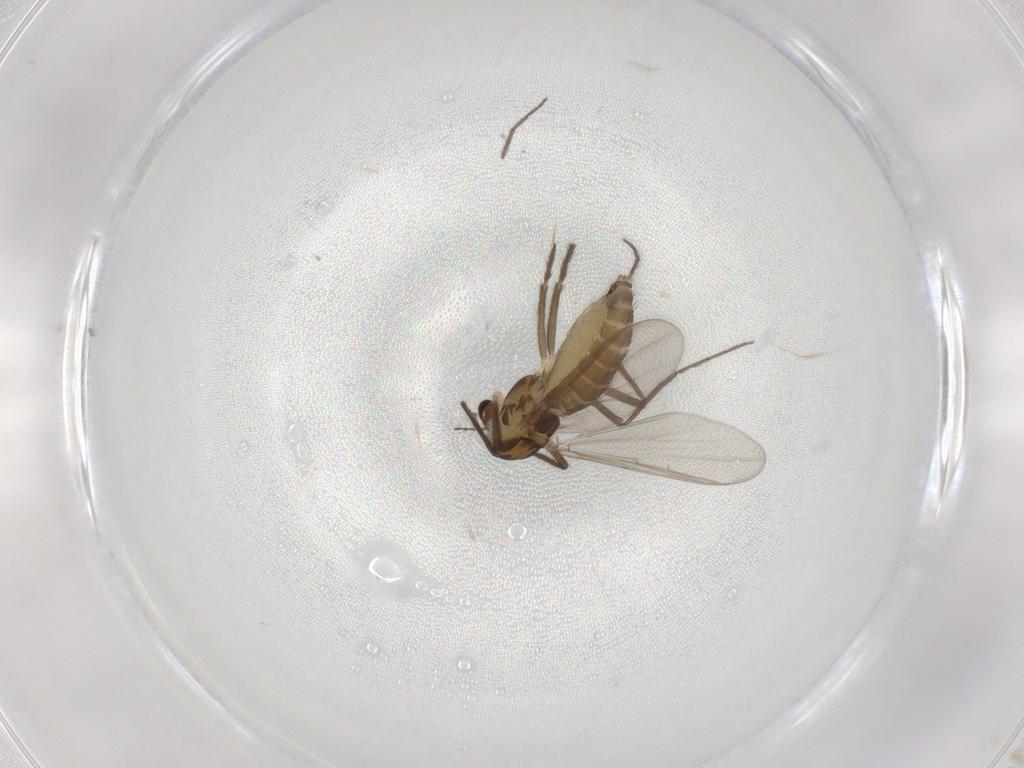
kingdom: Animalia
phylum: Arthropoda
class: Insecta
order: Diptera
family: Chironomidae
